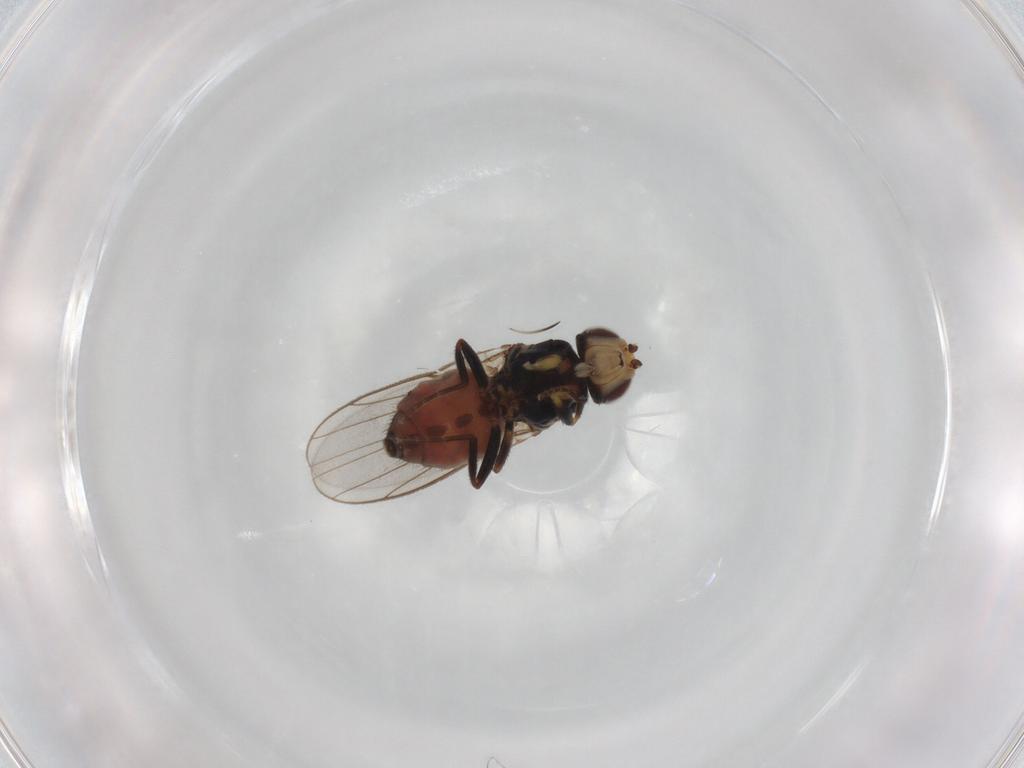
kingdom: Animalia
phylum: Arthropoda
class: Insecta
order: Diptera
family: Chloropidae
